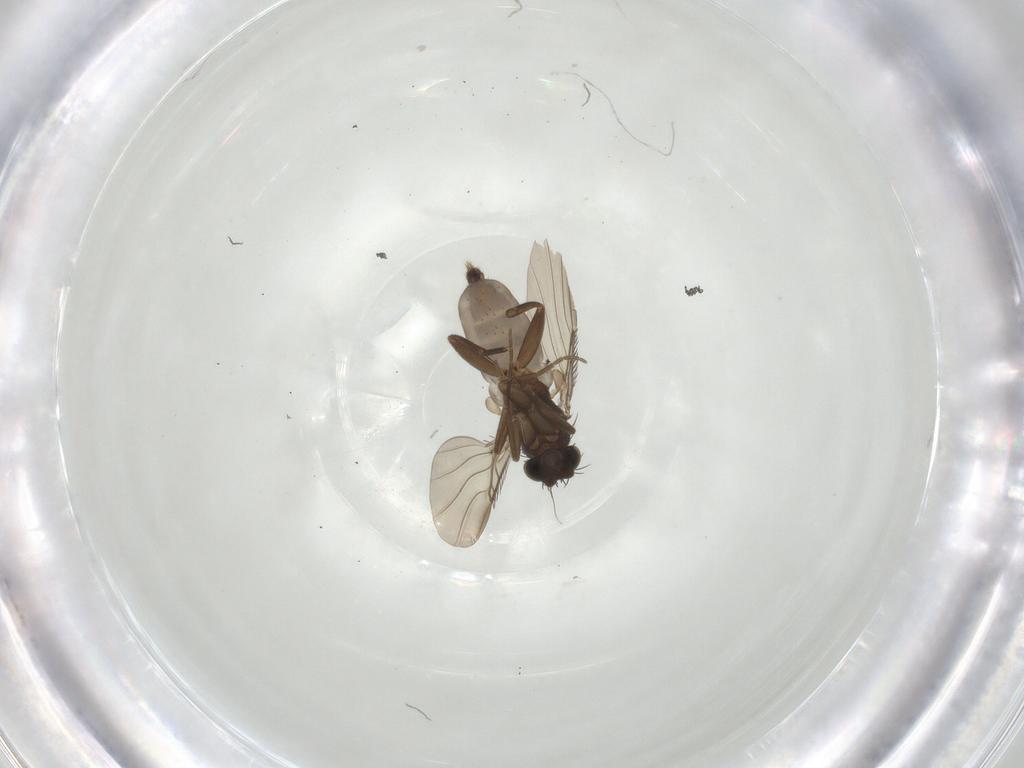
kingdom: Animalia
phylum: Arthropoda
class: Insecta
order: Diptera
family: Phoridae
